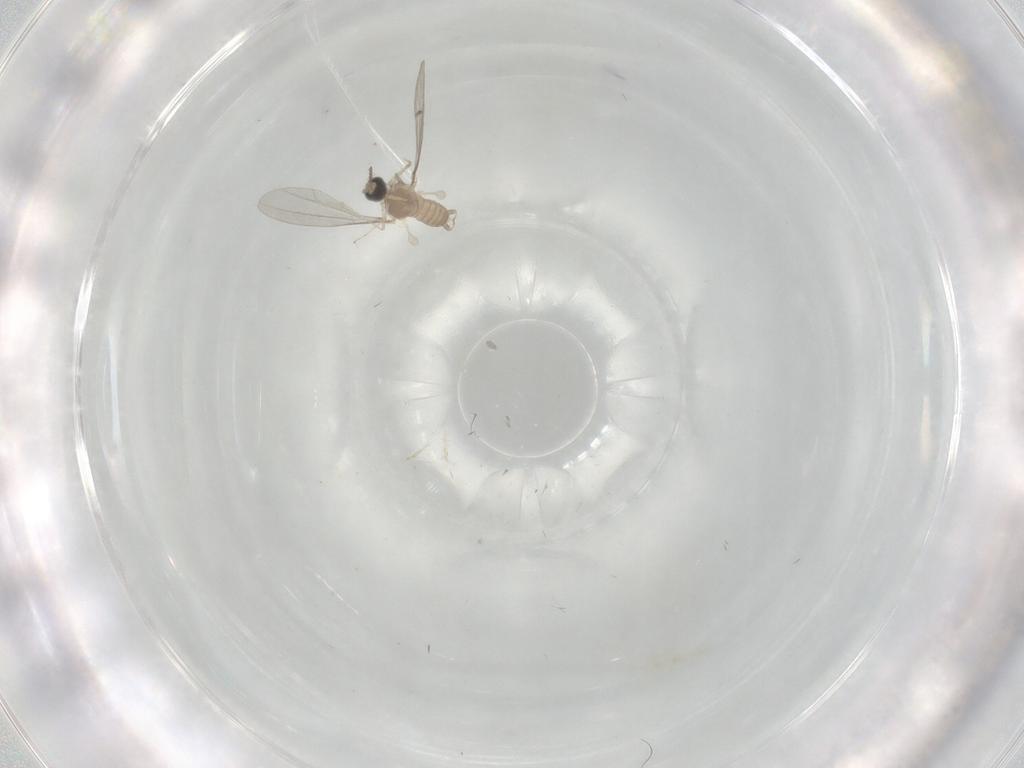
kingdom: Animalia
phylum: Arthropoda
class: Insecta
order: Diptera
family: Cecidomyiidae
